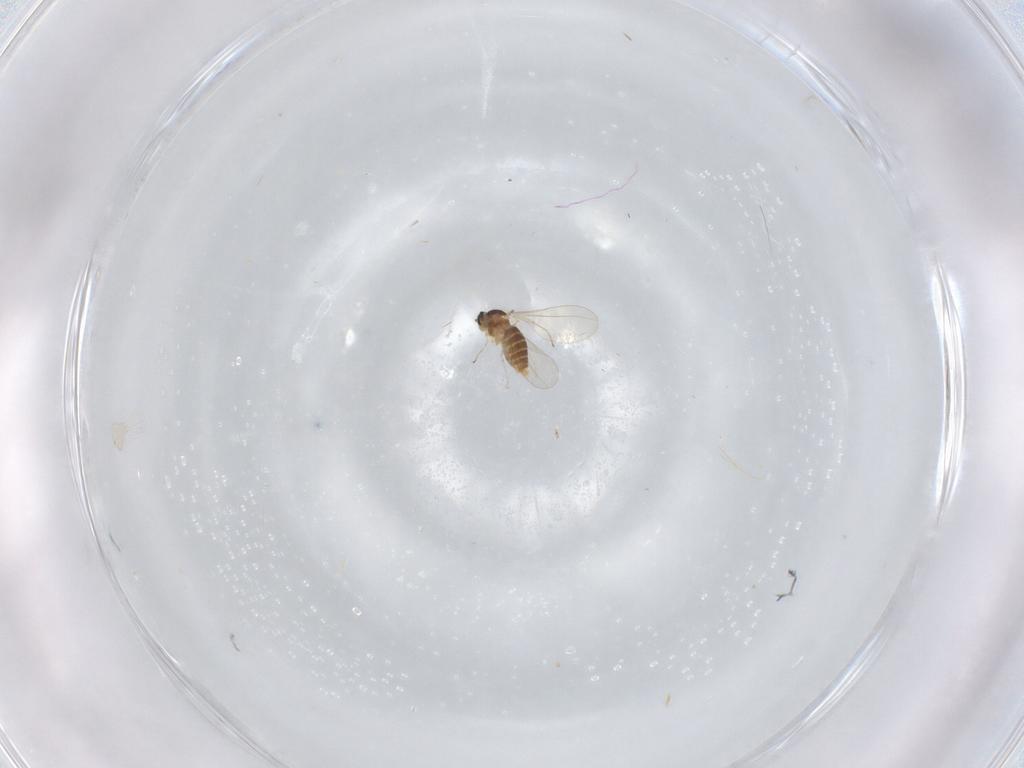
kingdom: Animalia
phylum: Arthropoda
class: Insecta
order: Diptera
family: Cecidomyiidae
